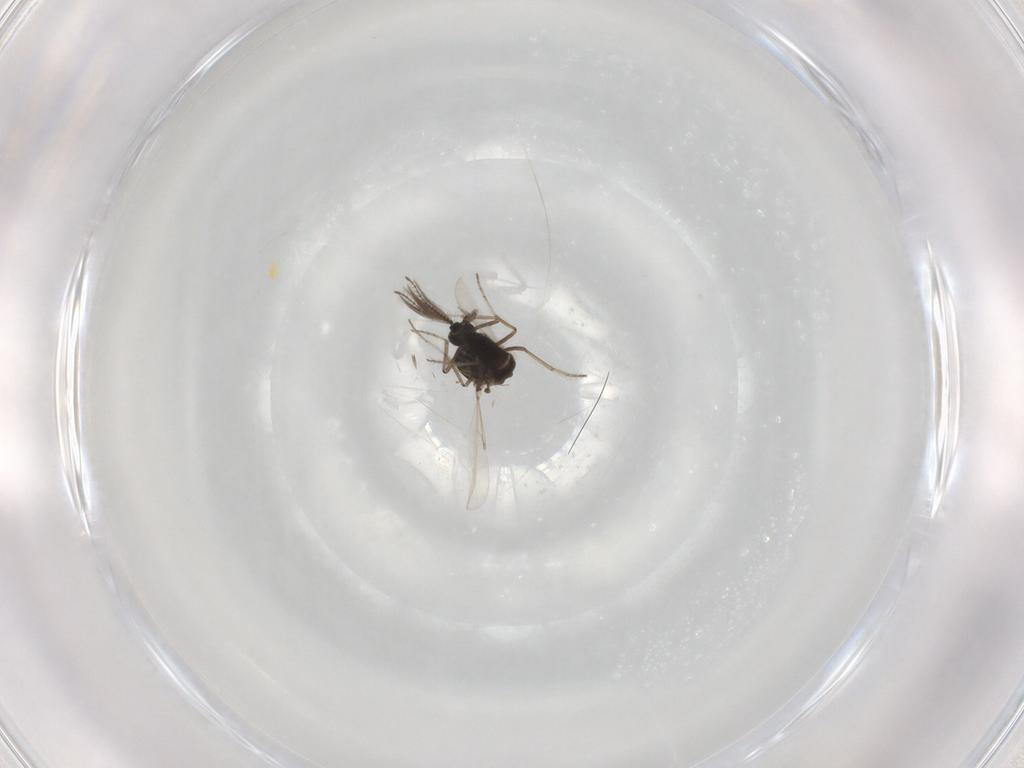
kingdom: Animalia
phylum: Arthropoda
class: Insecta
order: Diptera
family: Ceratopogonidae
